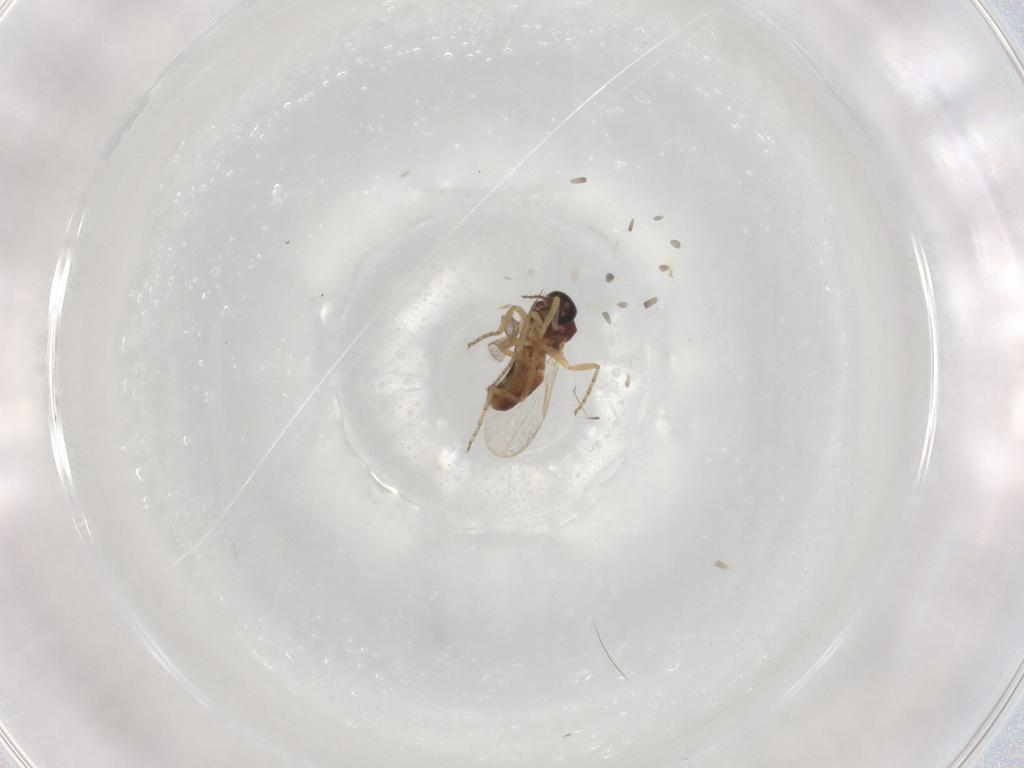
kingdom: Animalia
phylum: Arthropoda
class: Insecta
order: Diptera
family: Ceratopogonidae
